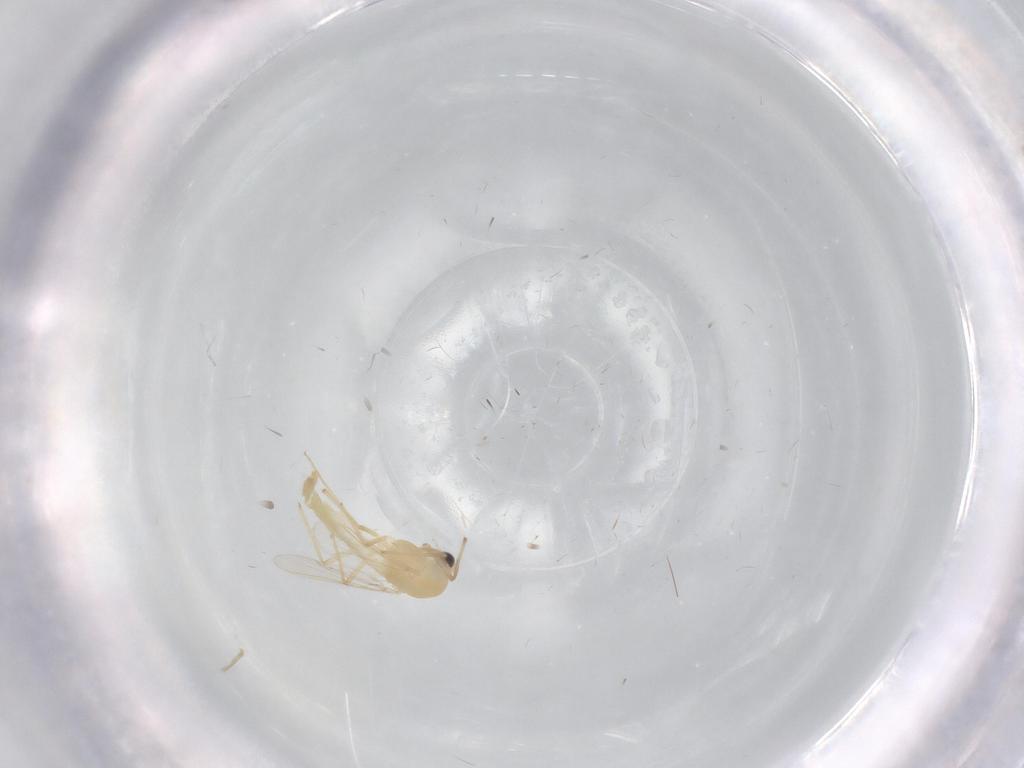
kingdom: Animalia
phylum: Arthropoda
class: Insecta
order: Diptera
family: Chironomidae
